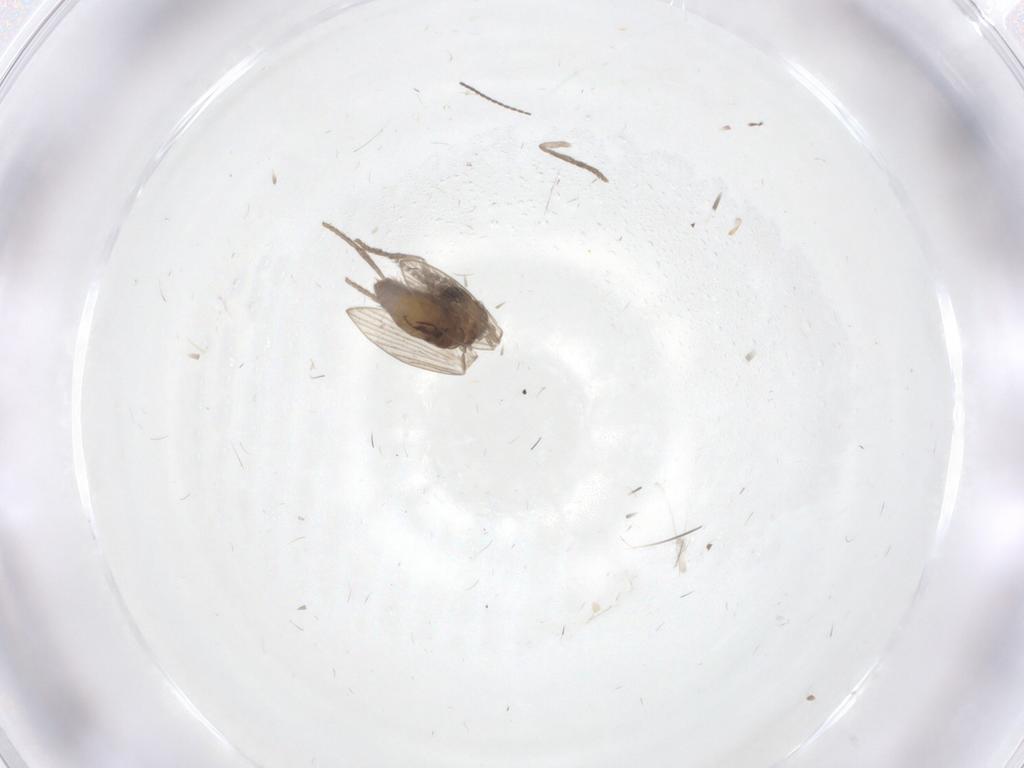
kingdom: Animalia
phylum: Arthropoda
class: Insecta
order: Diptera
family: Psychodidae
